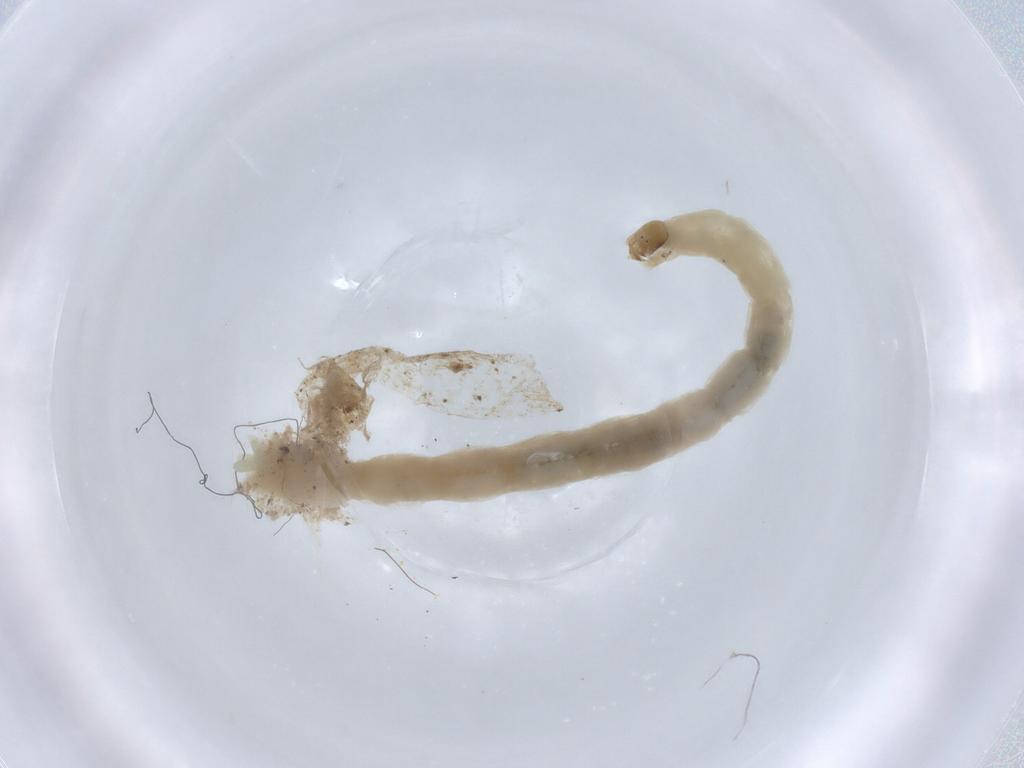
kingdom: Animalia
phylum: Arthropoda
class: Insecta
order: Diptera
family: Chironomidae
